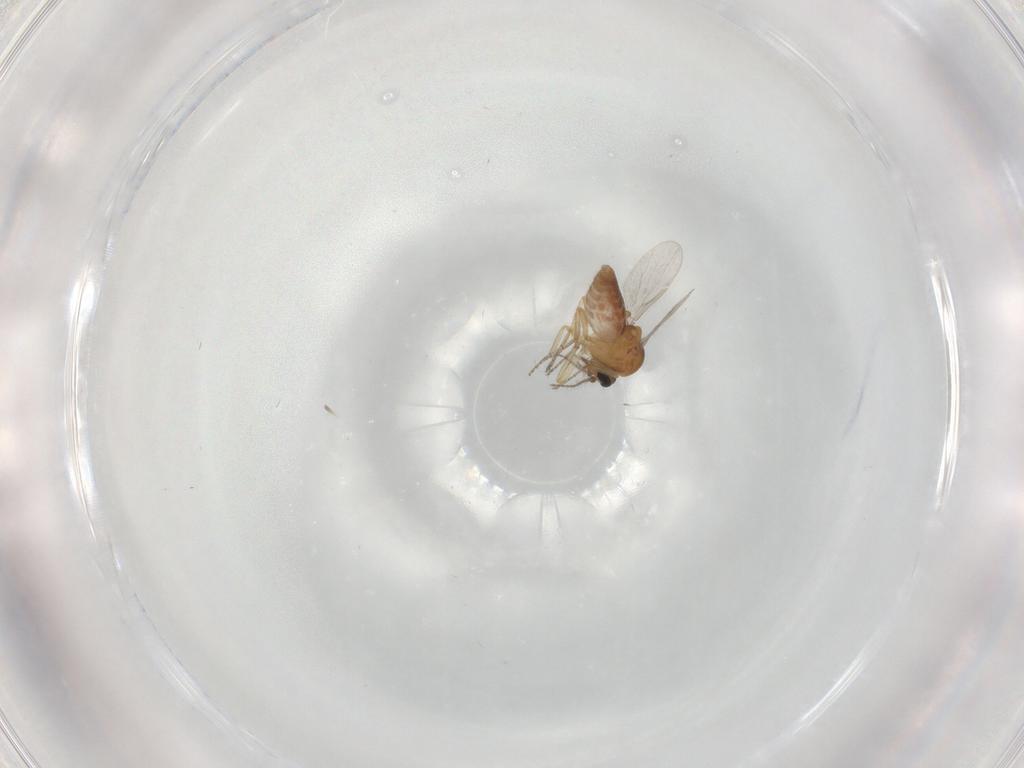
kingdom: Animalia
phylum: Arthropoda
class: Insecta
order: Diptera
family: Ceratopogonidae
